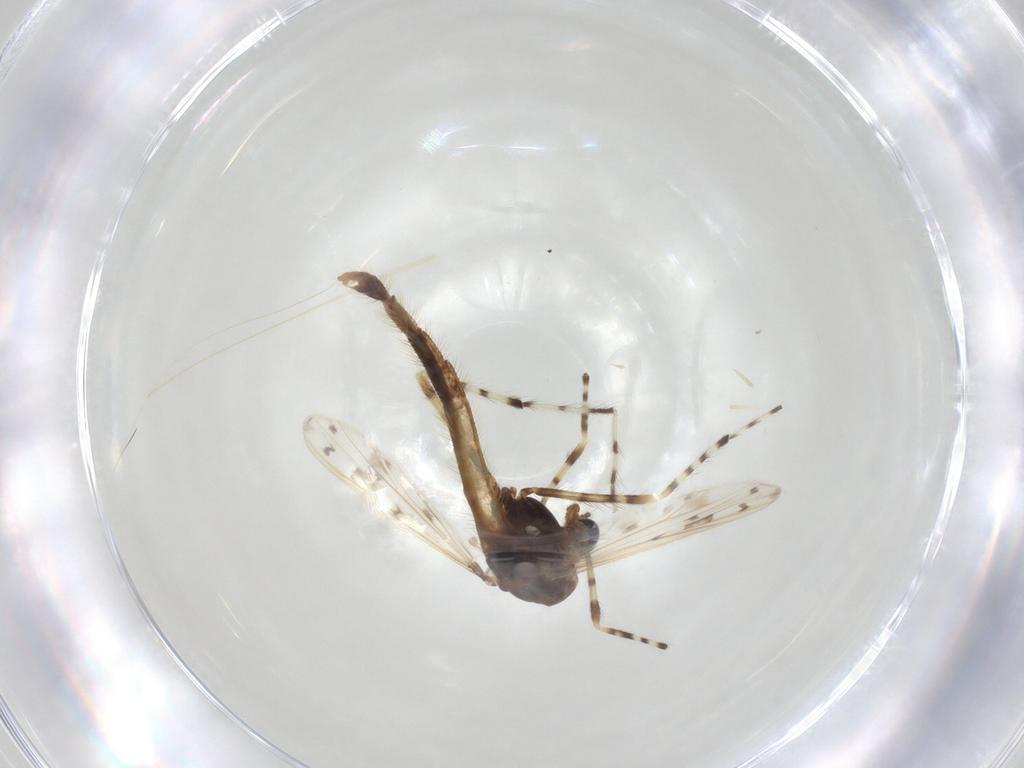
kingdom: Animalia
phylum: Arthropoda
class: Insecta
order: Diptera
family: Chironomidae
